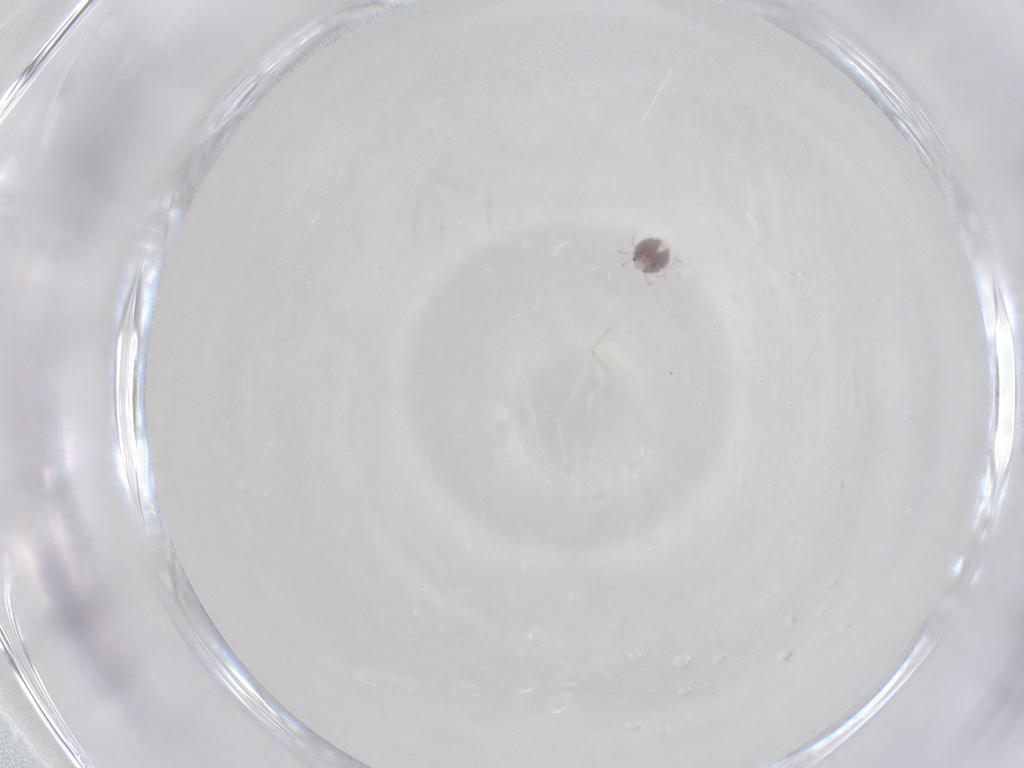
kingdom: Animalia
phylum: Arthropoda
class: Arachnida
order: Trombidiformes
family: Pionidae
